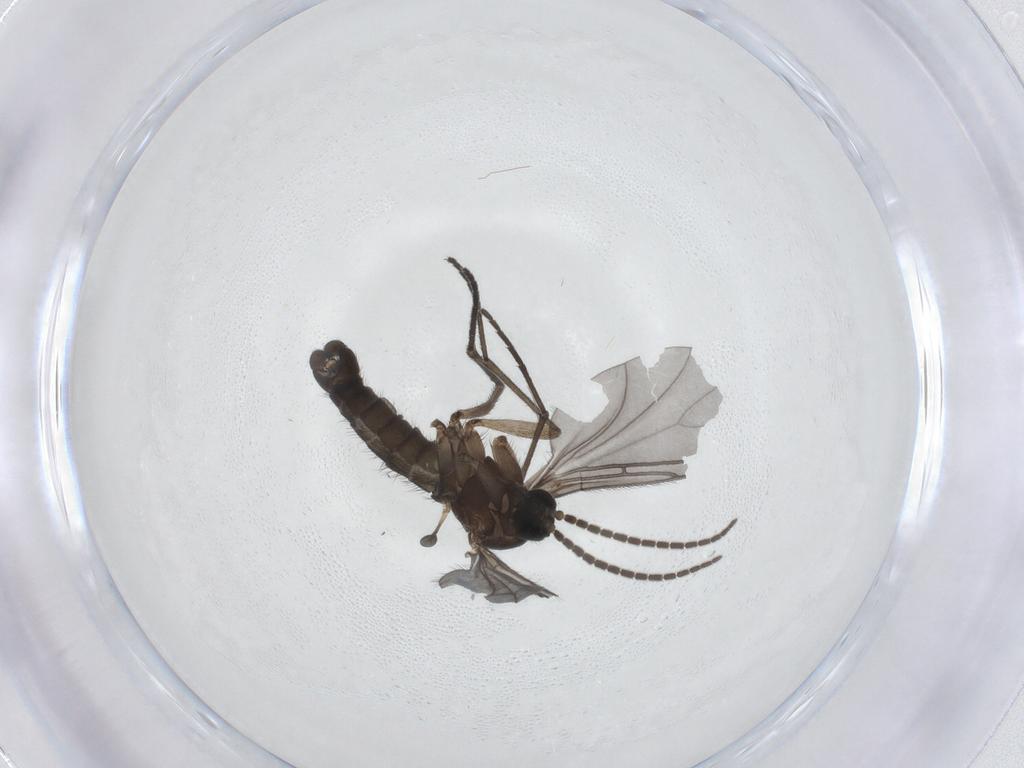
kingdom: Animalia
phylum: Arthropoda
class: Insecta
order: Diptera
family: Sciaridae
